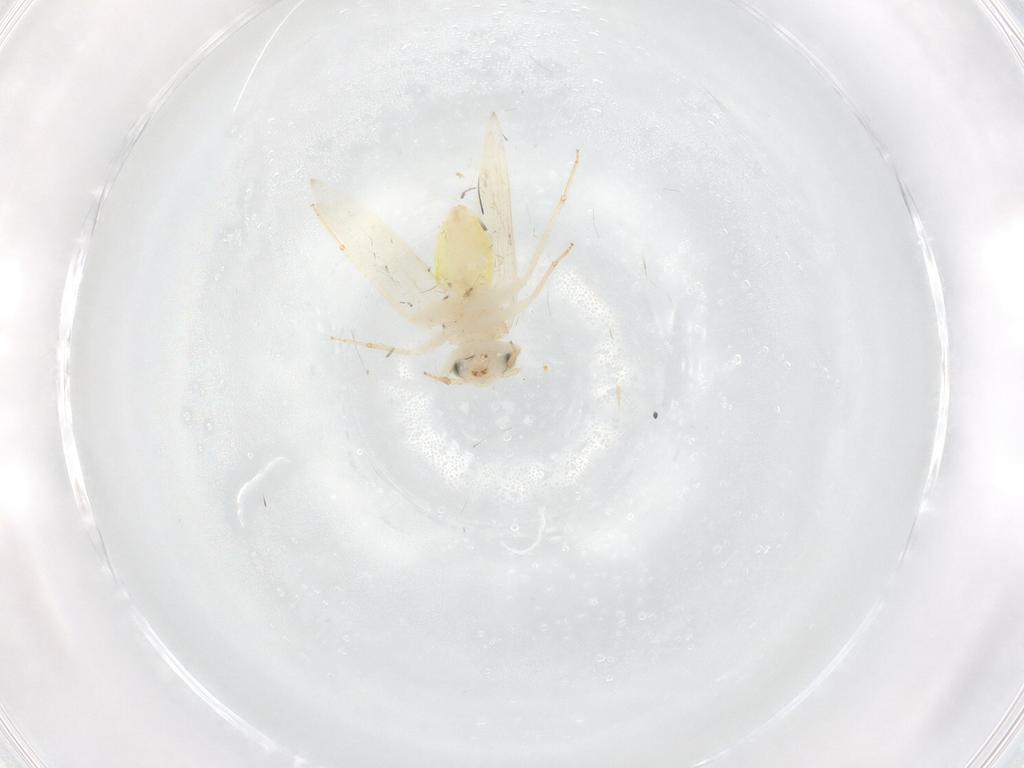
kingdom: Animalia
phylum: Arthropoda
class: Insecta
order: Psocodea
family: Lepidopsocidae
